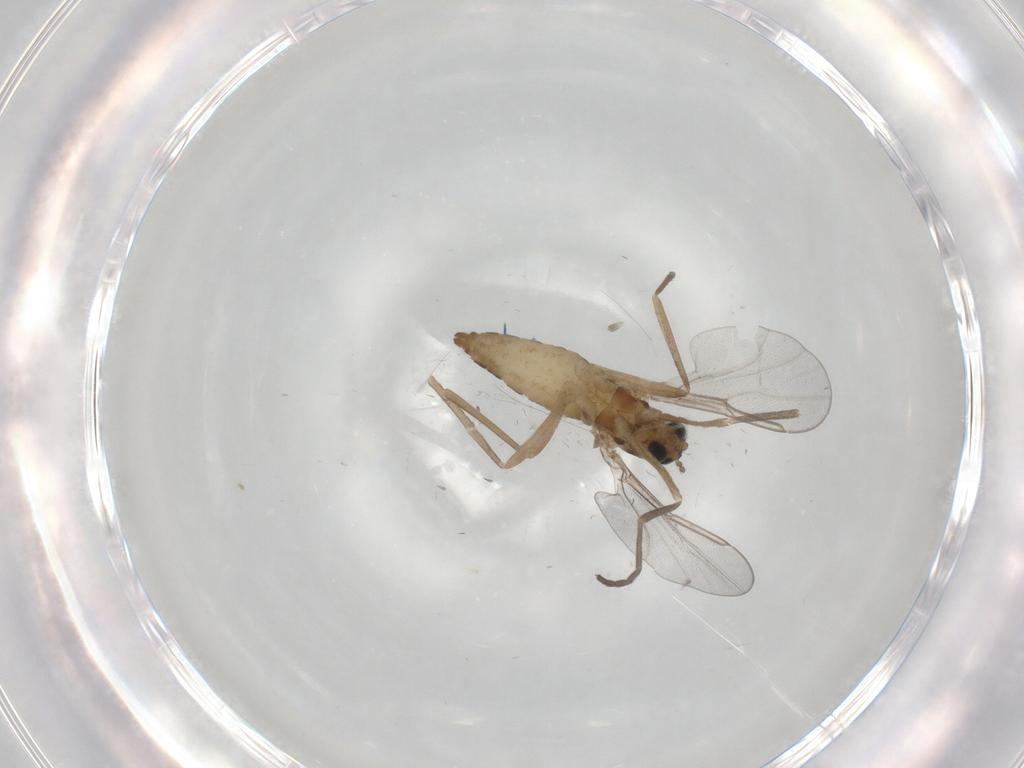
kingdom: Animalia
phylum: Arthropoda
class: Insecta
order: Diptera
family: Cecidomyiidae
